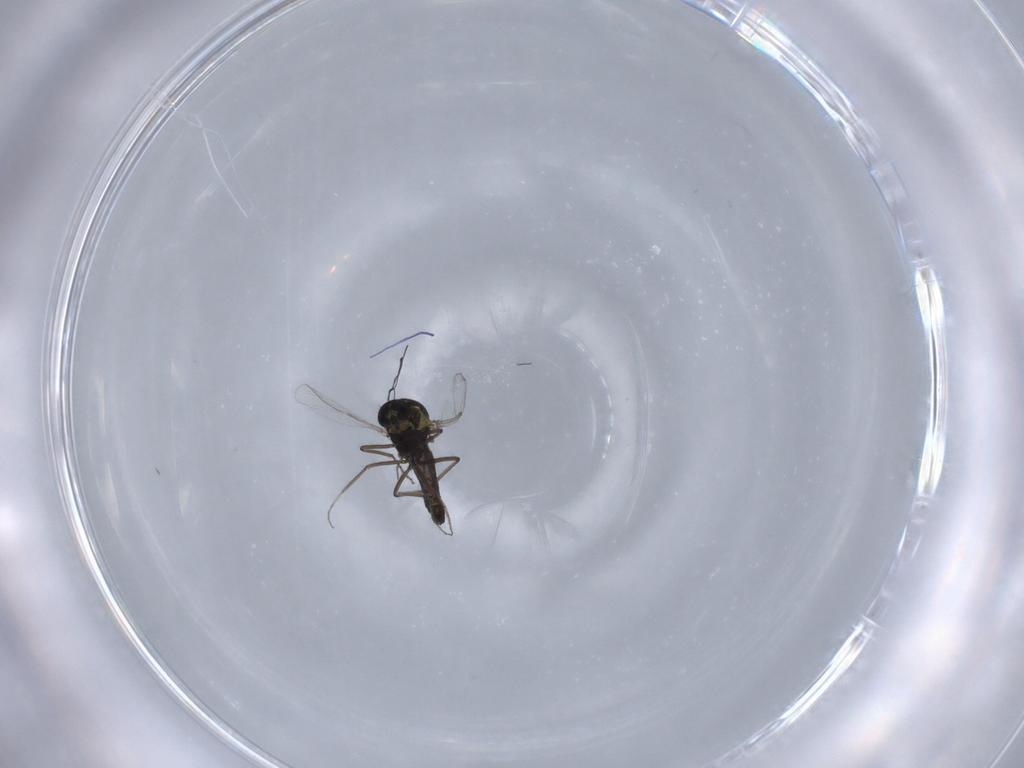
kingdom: Animalia
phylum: Arthropoda
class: Insecta
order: Diptera
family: Ceratopogonidae
